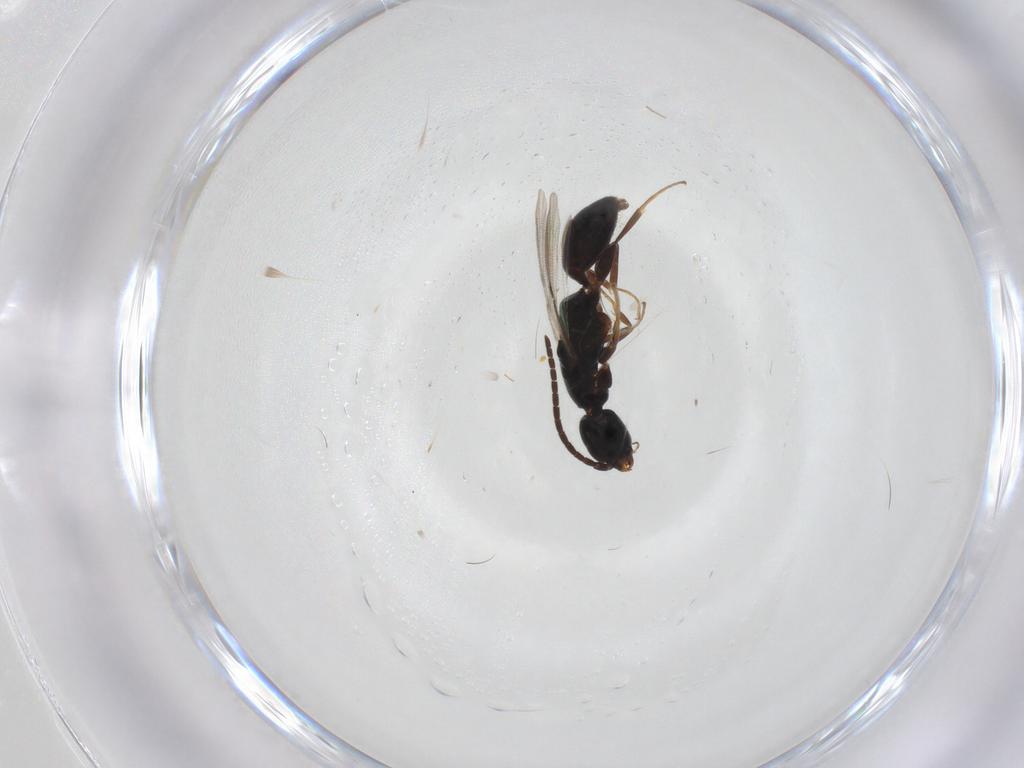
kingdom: Animalia
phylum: Arthropoda
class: Insecta
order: Hymenoptera
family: Bethylidae
